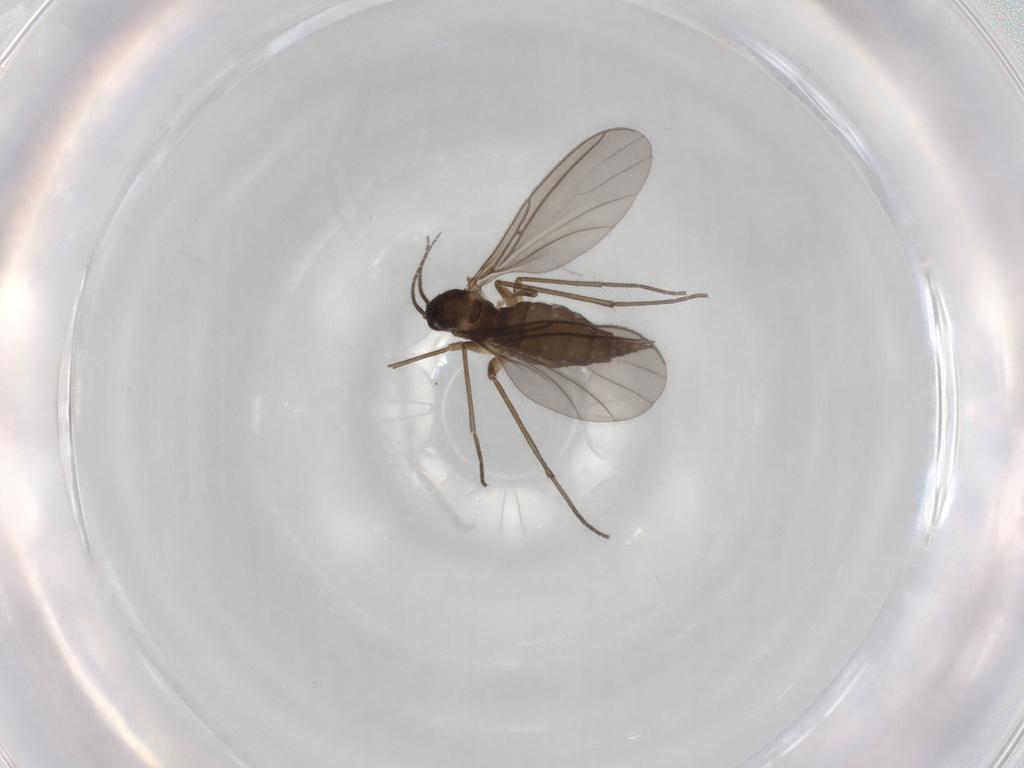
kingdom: Animalia
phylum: Arthropoda
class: Insecta
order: Diptera
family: Sciaridae
